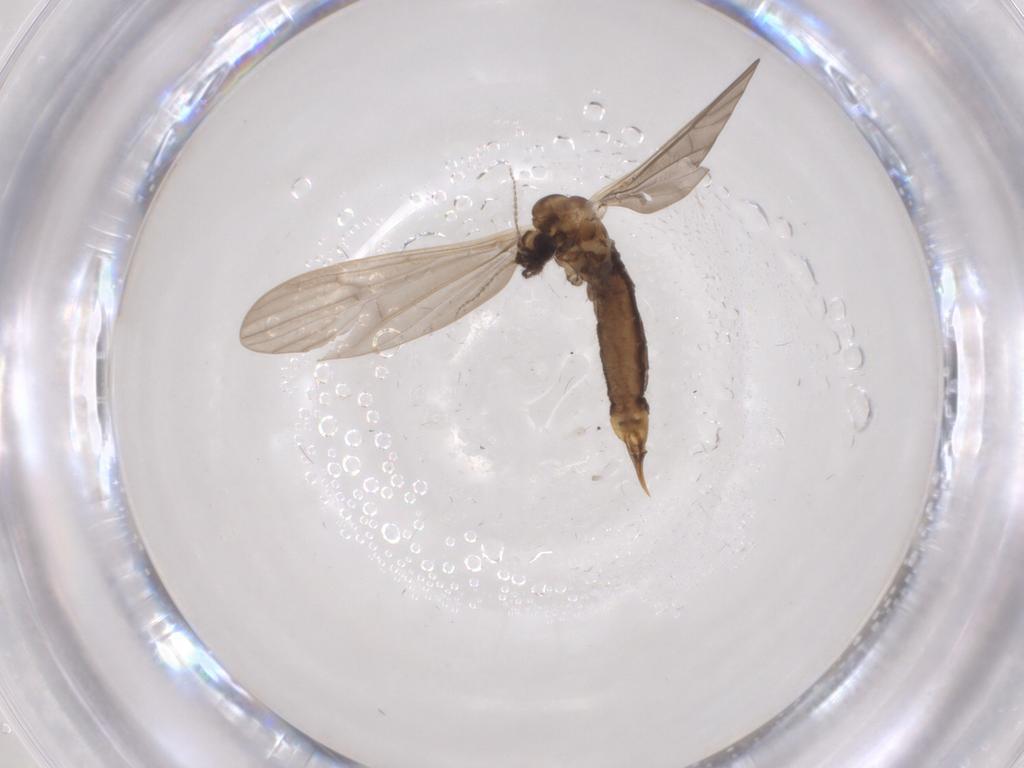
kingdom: Animalia
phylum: Arthropoda
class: Insecta
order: Diptera
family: Limoniidae
